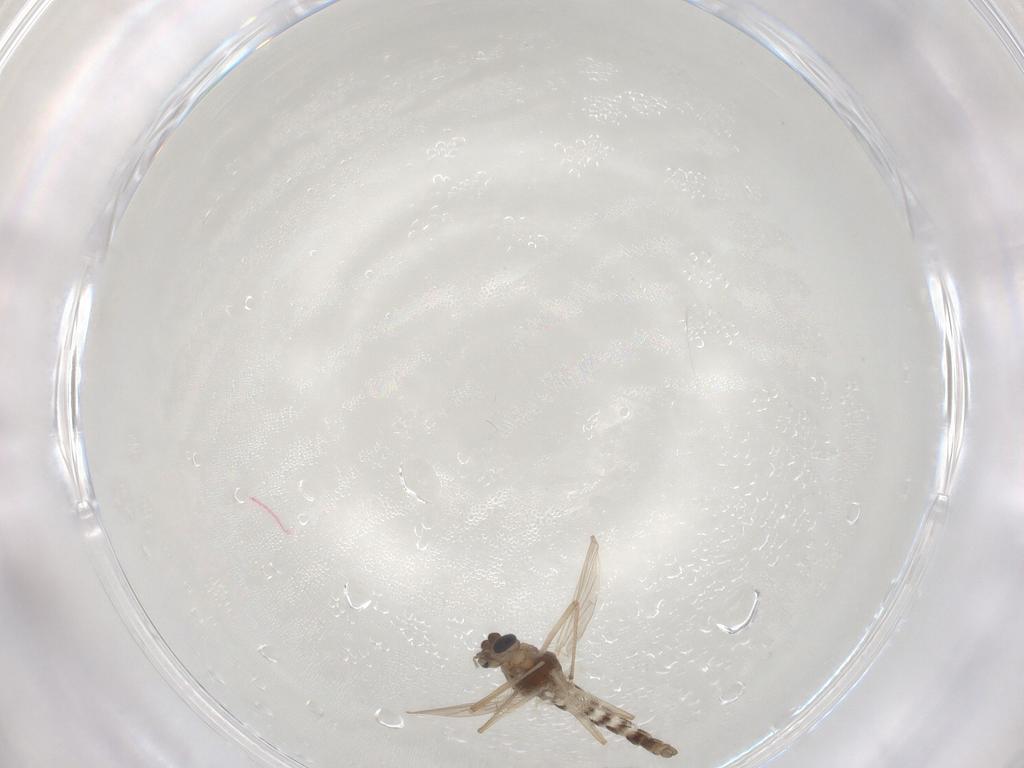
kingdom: Animalia
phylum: Arthropoda
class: Insecta
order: Diptera
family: Chironomidae
